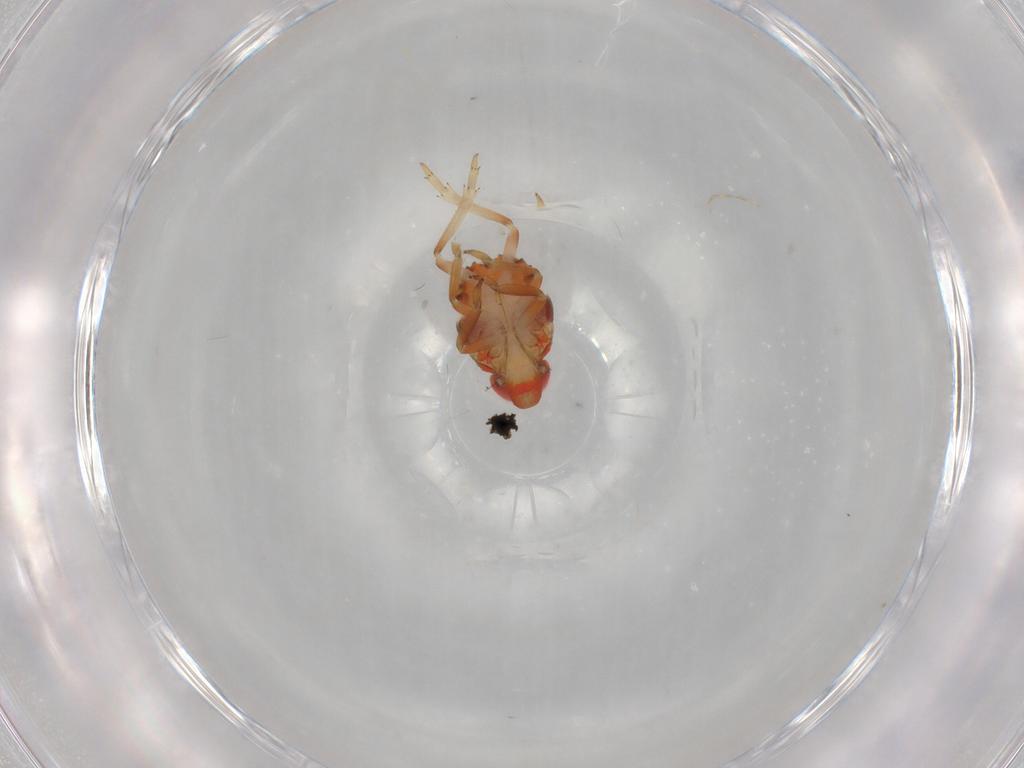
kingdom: Animalia
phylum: Arthropoda
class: Insecta
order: Hemiptera
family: Issidae
